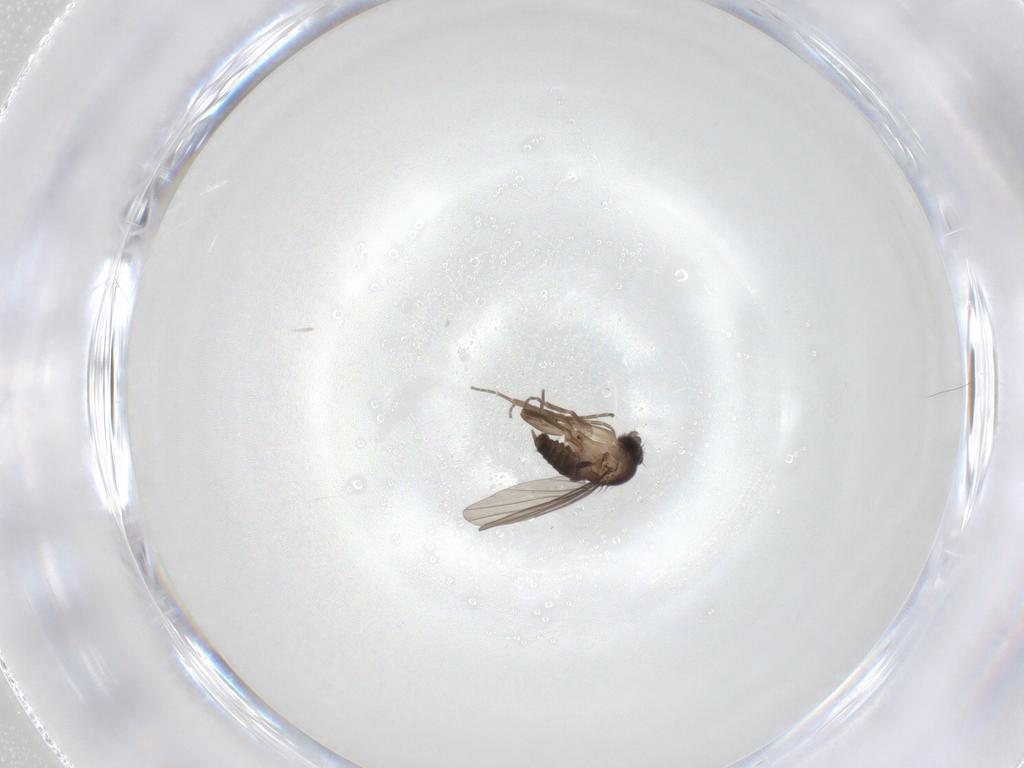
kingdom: Animalia
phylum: Arthropoda
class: Insecta
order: Diptera
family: Phoridae
